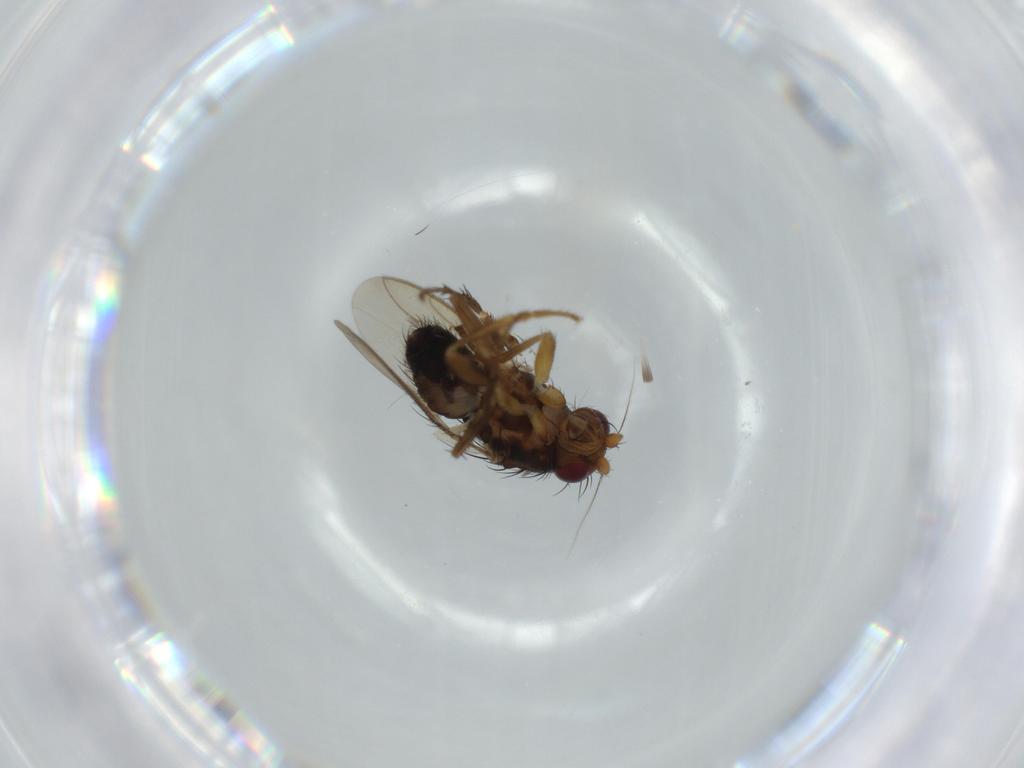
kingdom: Animalia
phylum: Arthropoda
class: Insecta
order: Diptera
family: Sphaeroceridae
